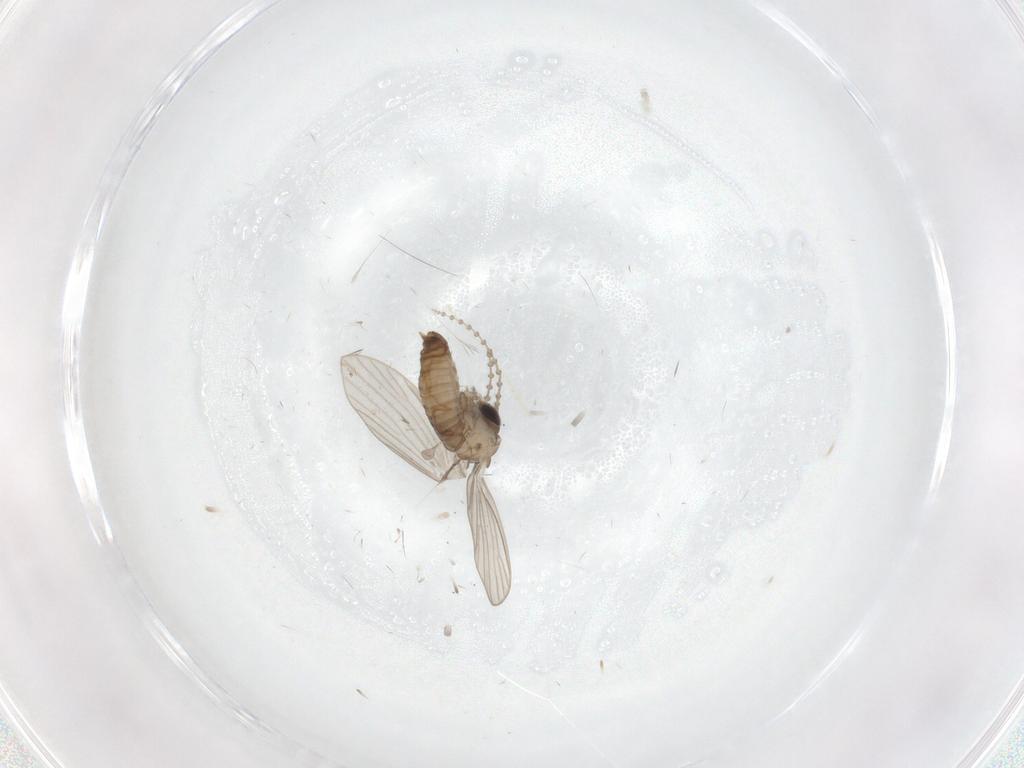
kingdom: Animalia
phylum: Arthropoda
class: Insecta
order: Diptera
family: Psychodidae
